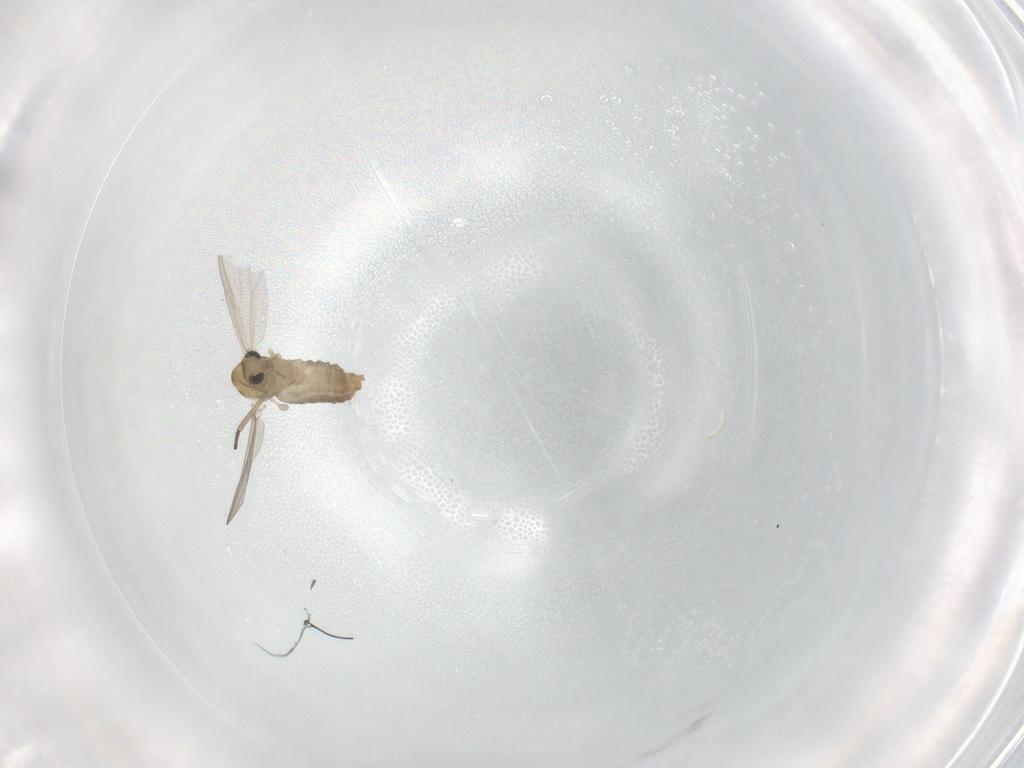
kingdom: Animalia
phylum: Arthropoda
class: Insecta
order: Diptera
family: Chironomidae
